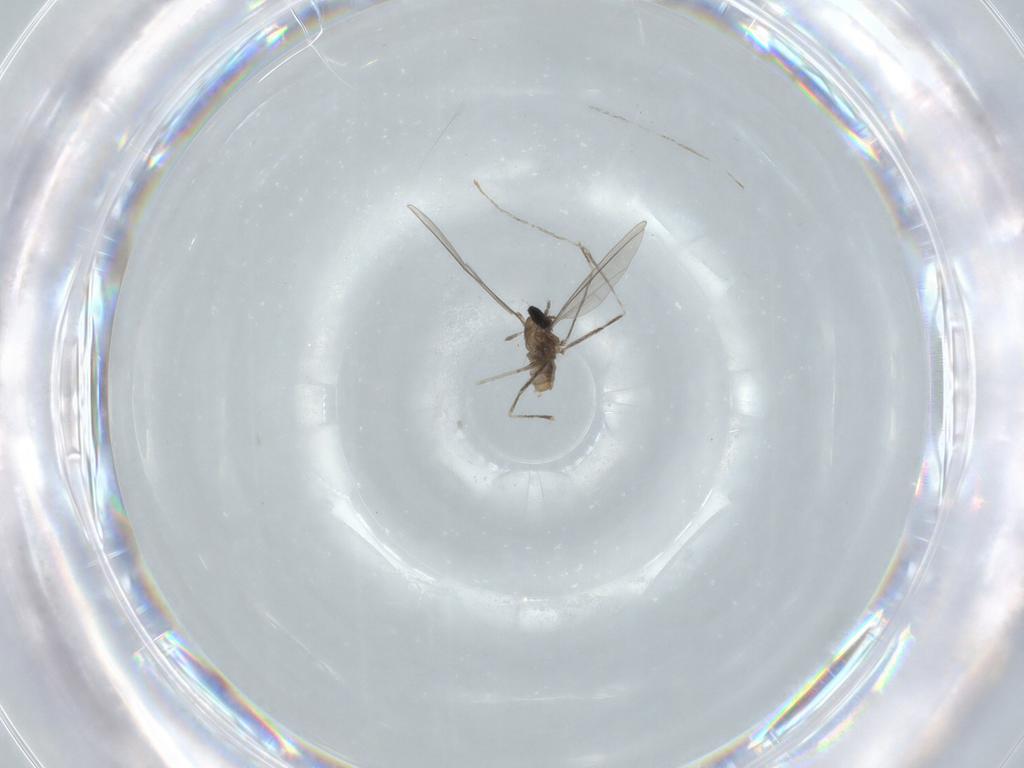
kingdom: Animalia
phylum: Arthropoda
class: Insecta
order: Diptera
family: Cecidomyiidae
